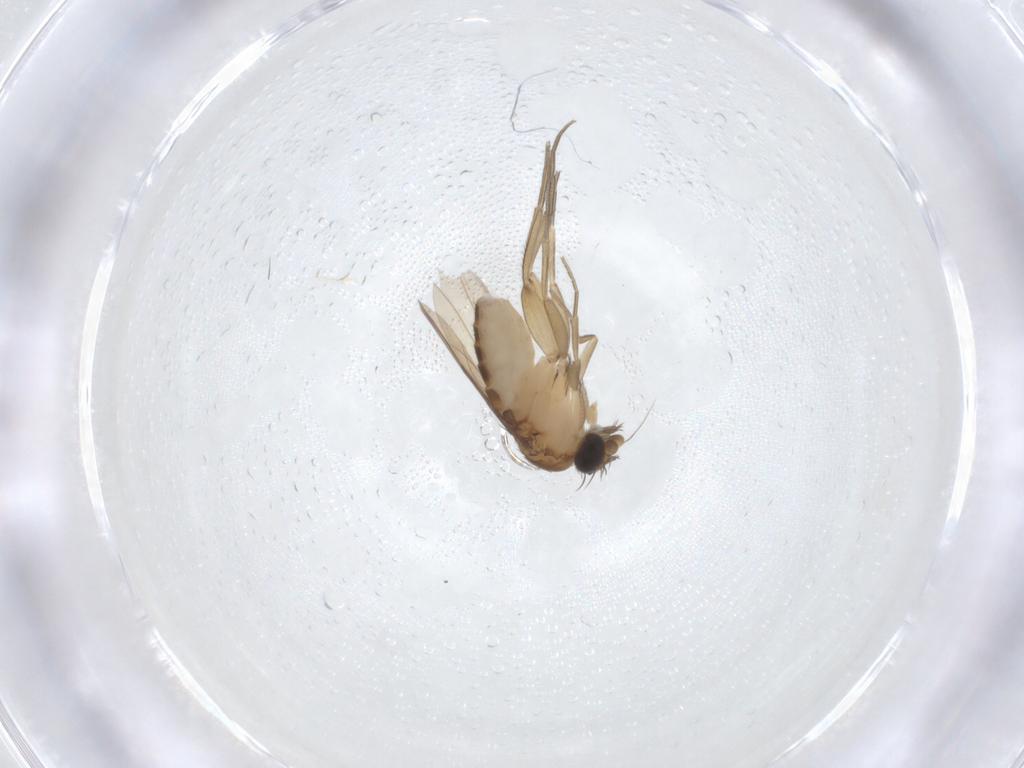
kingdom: Animalia
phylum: Arthropoda
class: Insecta
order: Diptera
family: Phoridae
